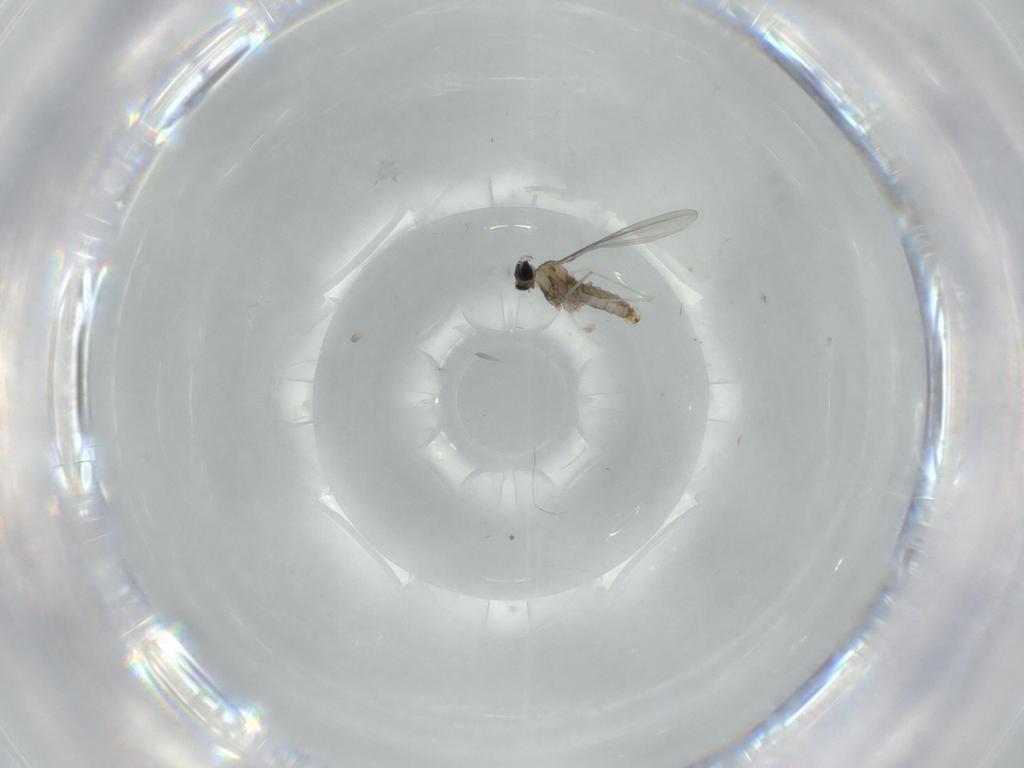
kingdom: Animalia
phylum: Arthropoda
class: Insecta
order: Diptera
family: Cecidomyiidae
